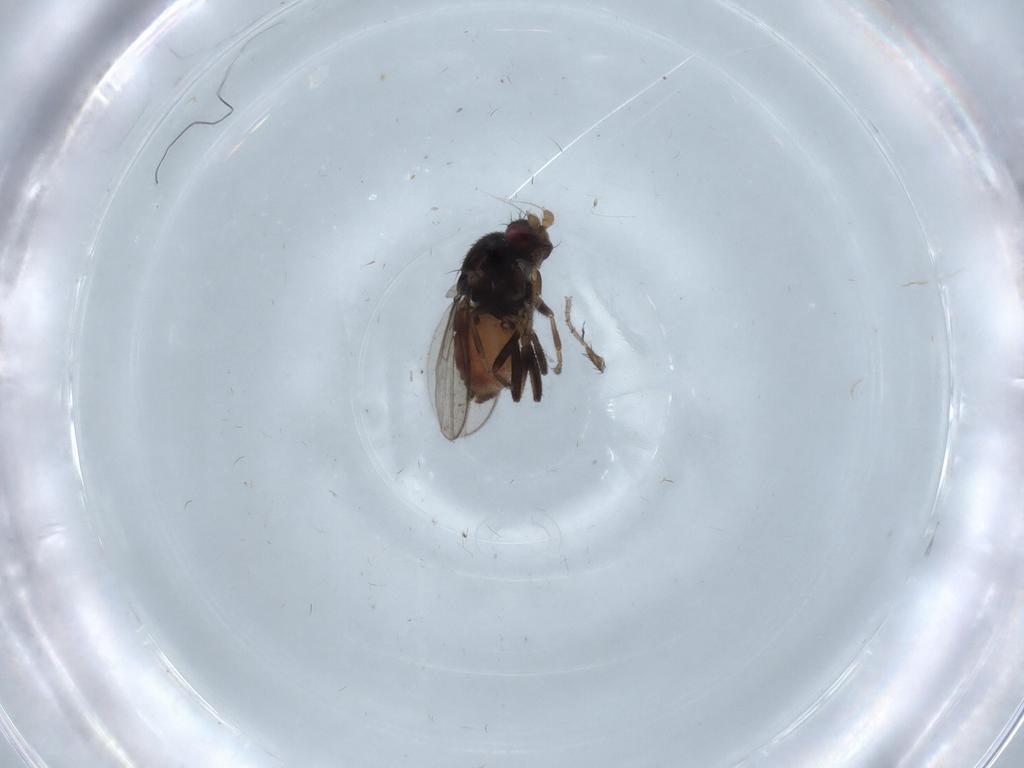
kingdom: Animalia
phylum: Arthropoda
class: Insecta
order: Diptera
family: Sphaeroceridae
